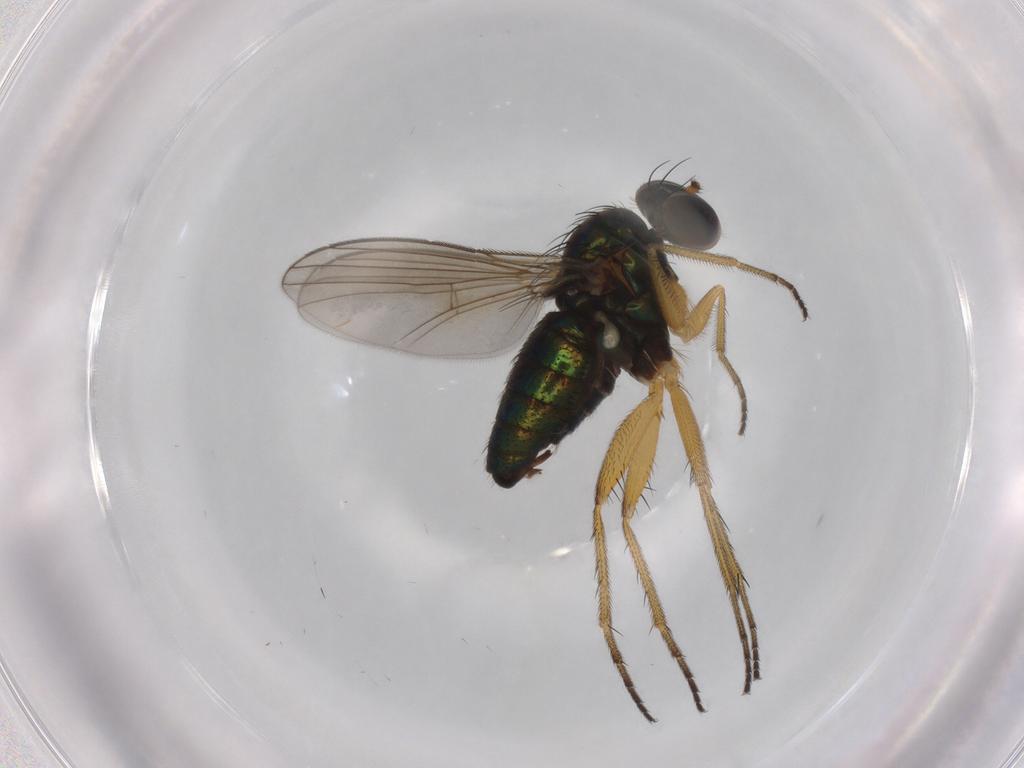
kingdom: Animalia
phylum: Arthropoda
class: Insecta
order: Diptera
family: Dolichopodidae
